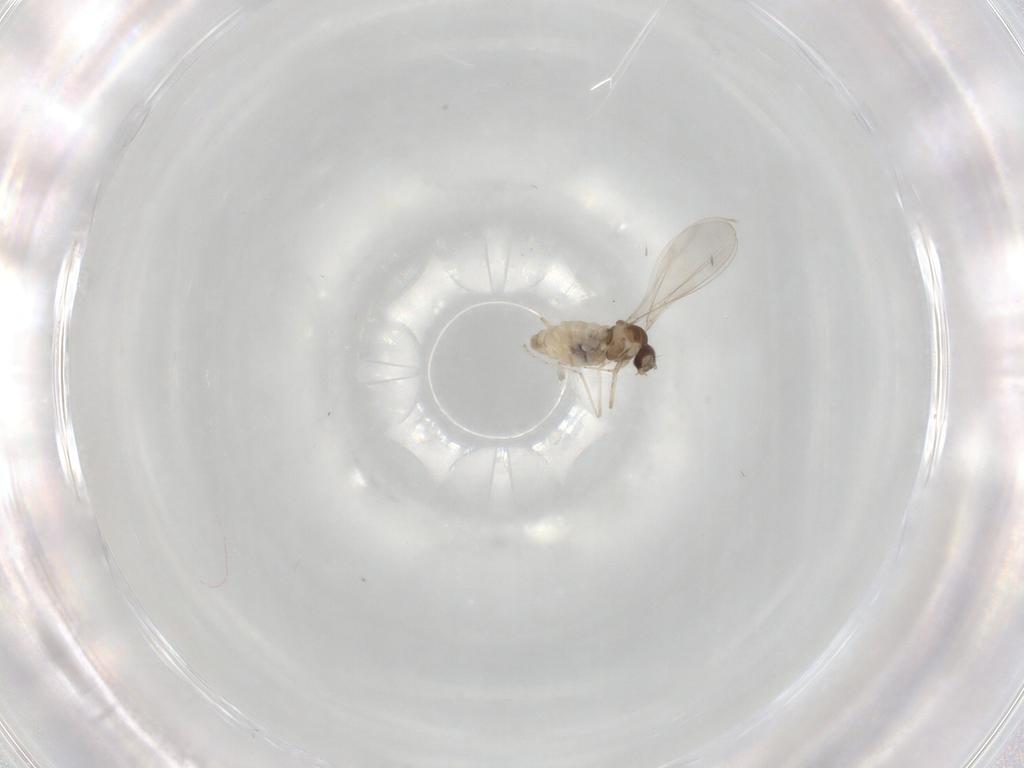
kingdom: Animalia
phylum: Arthropoda
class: Insecta
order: Diptera
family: Cecidomyiidae
